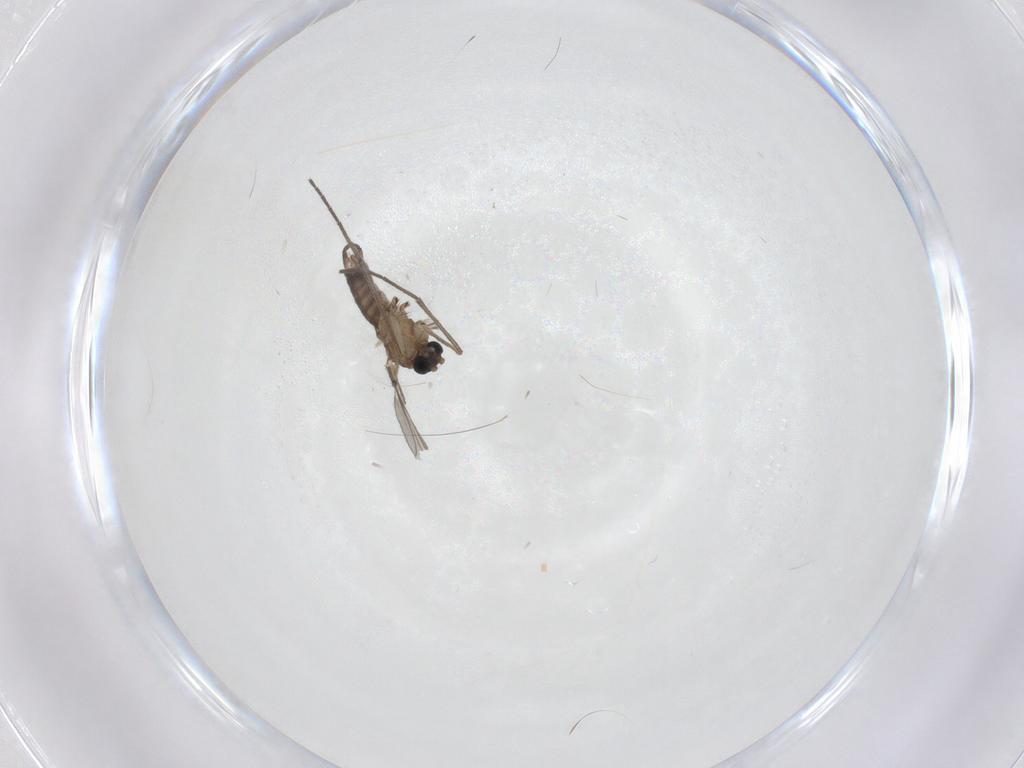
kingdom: Animalia
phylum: Arthropoda
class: Insecta
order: Diptera
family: Sciaridae
